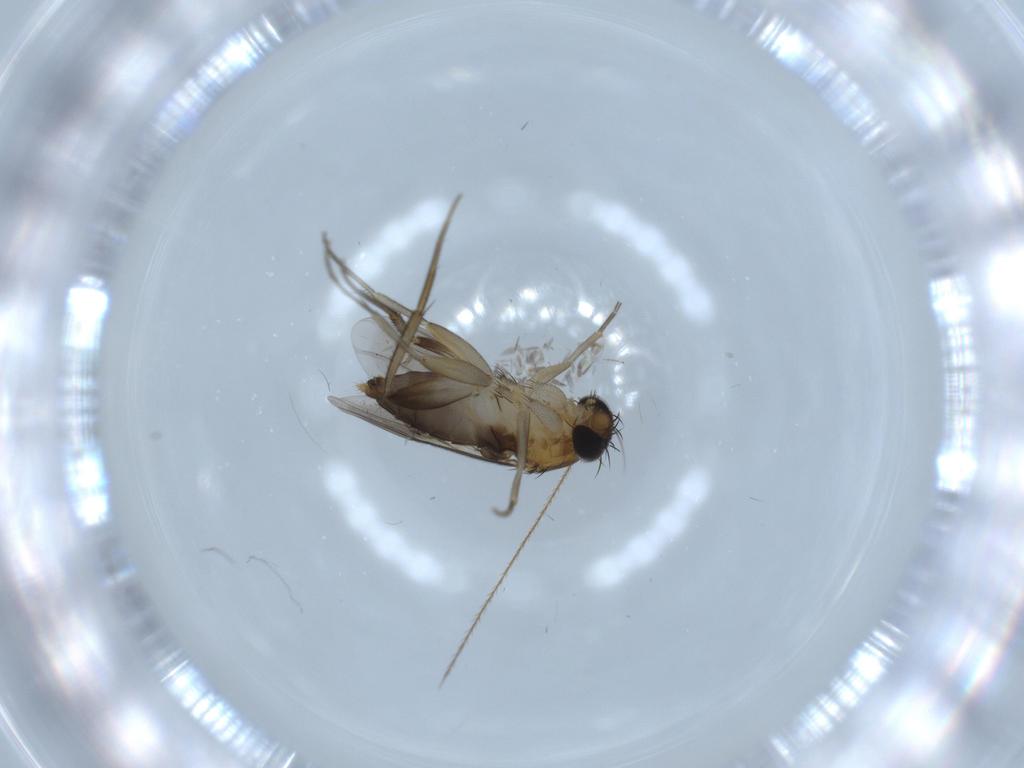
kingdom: Animalia
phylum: Arthropoda
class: Insecta
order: Diptera
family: Phoridae
